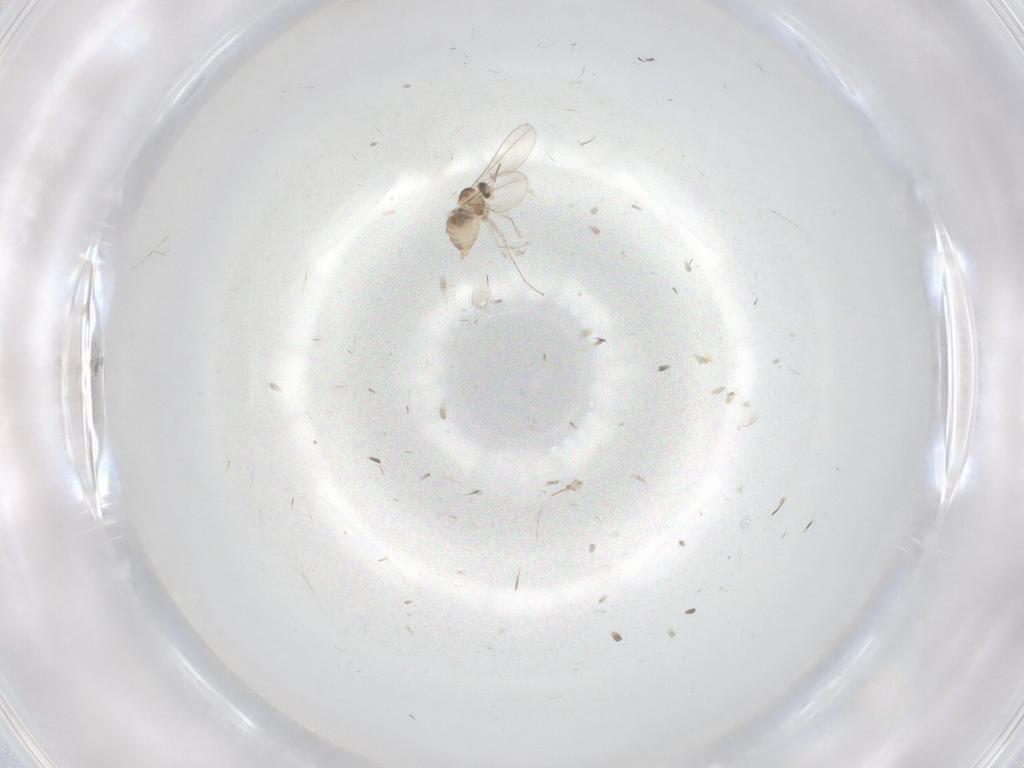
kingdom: Animalia
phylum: Arthropoda
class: Insecta
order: Diptera
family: Cecidomyiidae
